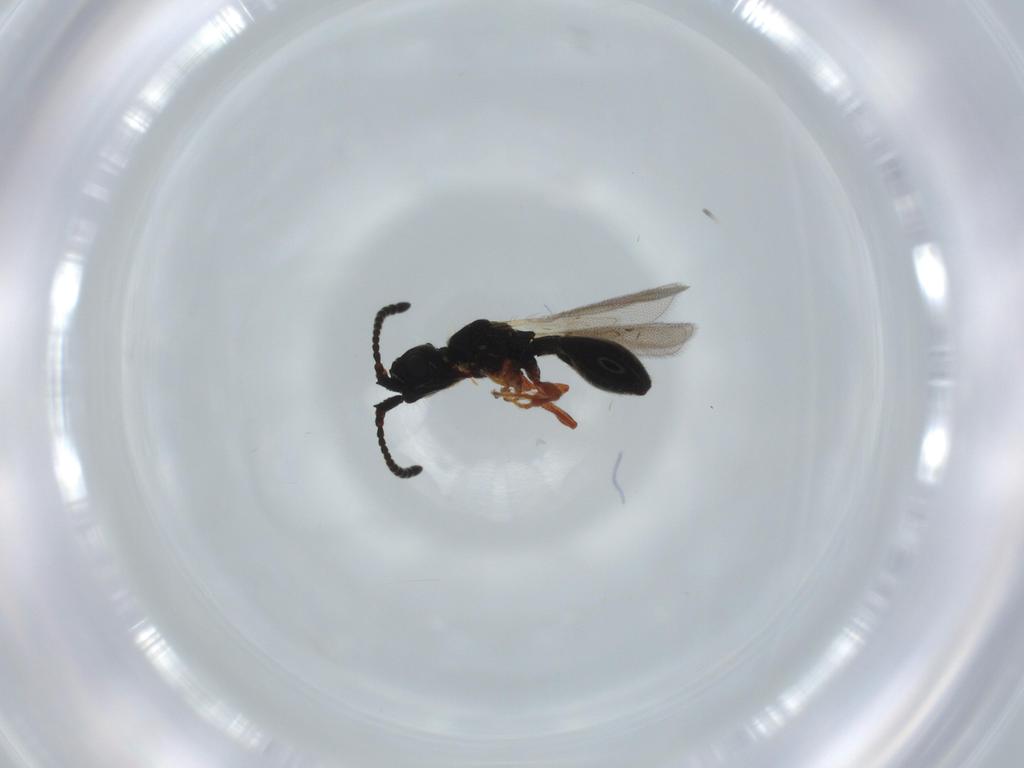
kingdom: Animalia
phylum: Arthropoda
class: Insecta
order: Hymenoptera
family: Diapriidae
